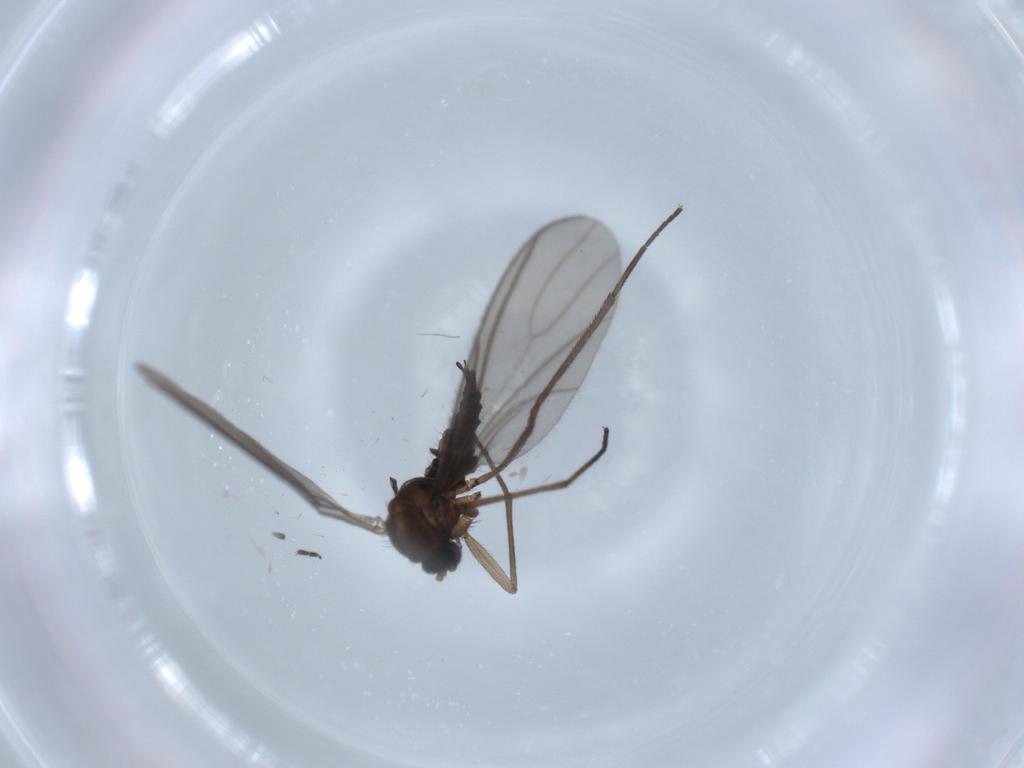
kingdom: Animalia
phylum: Arthropoda
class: Insecta
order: Diptera
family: Sciaridae
